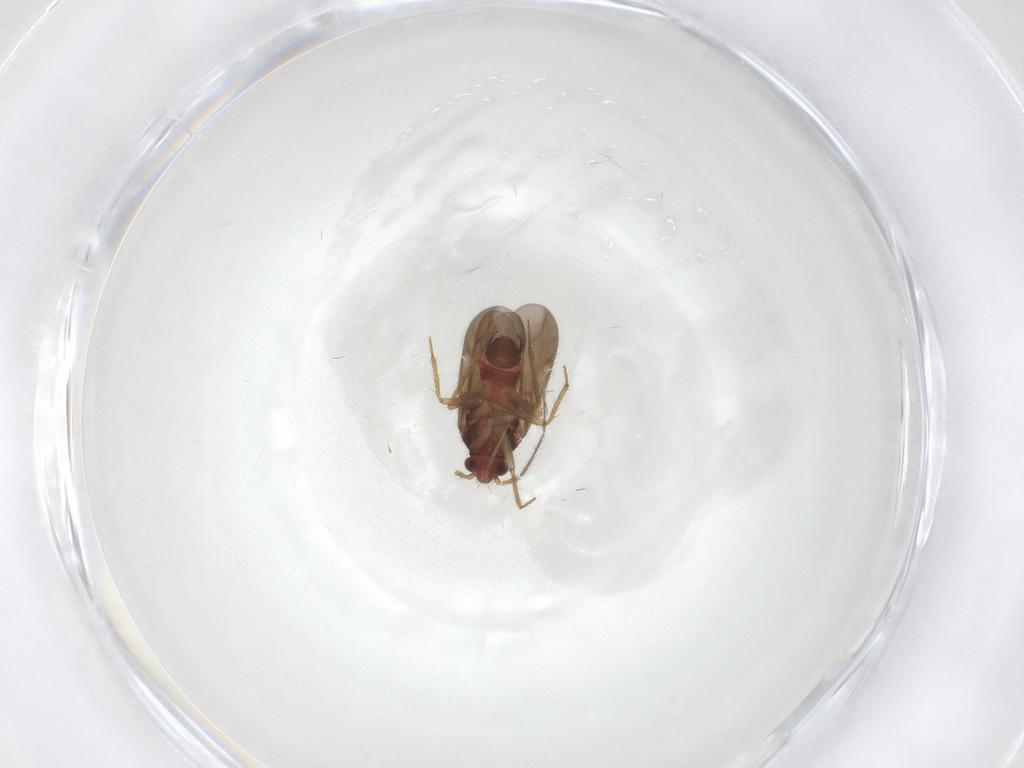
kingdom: Animalia
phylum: Arthropoda
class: Insecta
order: Hemiptera
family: Ceratocombidae
